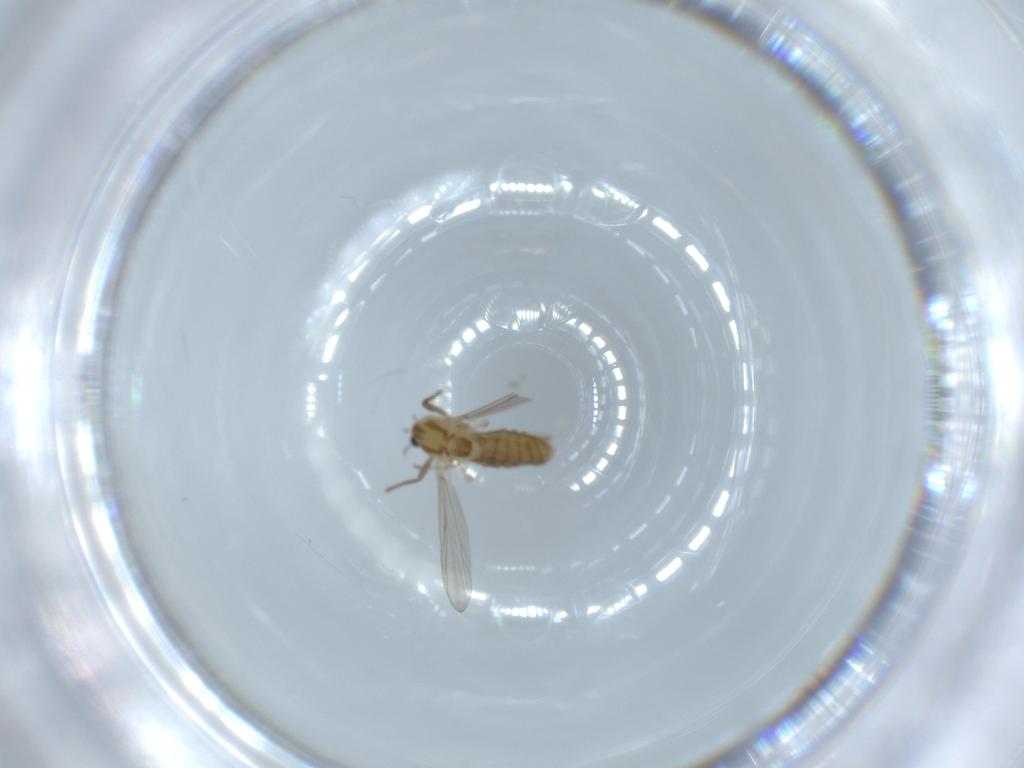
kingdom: Animalia
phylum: Arthropoda
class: Insecta
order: Diptera
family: Chironomidae
